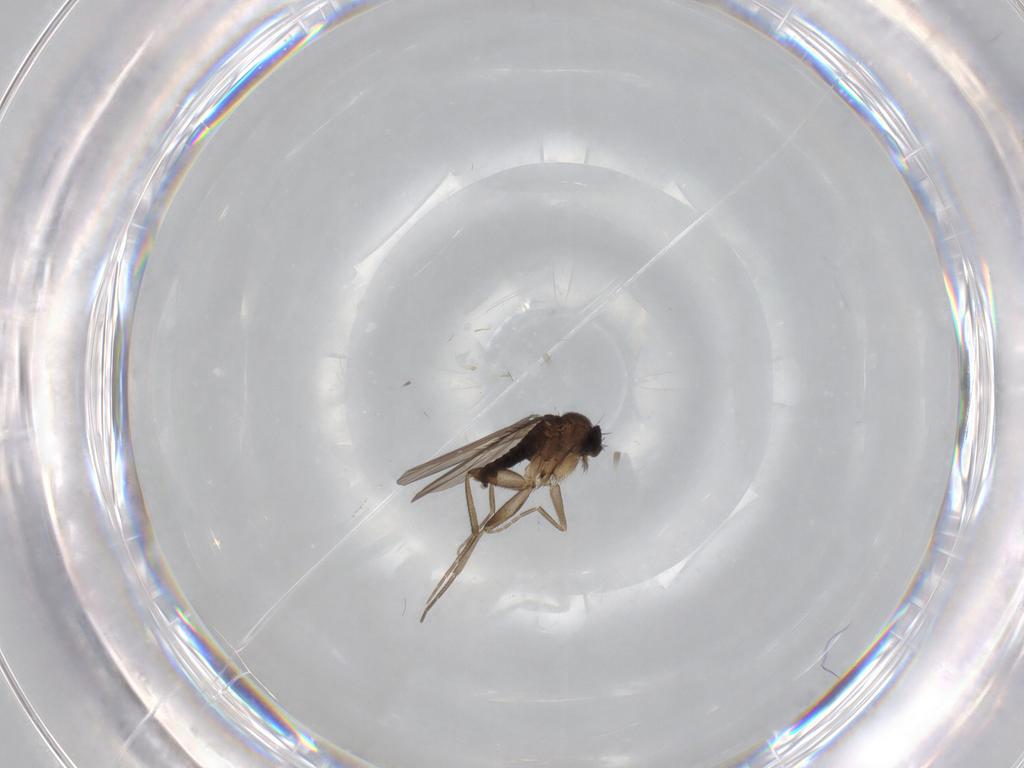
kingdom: Animalia
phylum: Arthropoda
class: Insecta
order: Diptera
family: Phoridae
